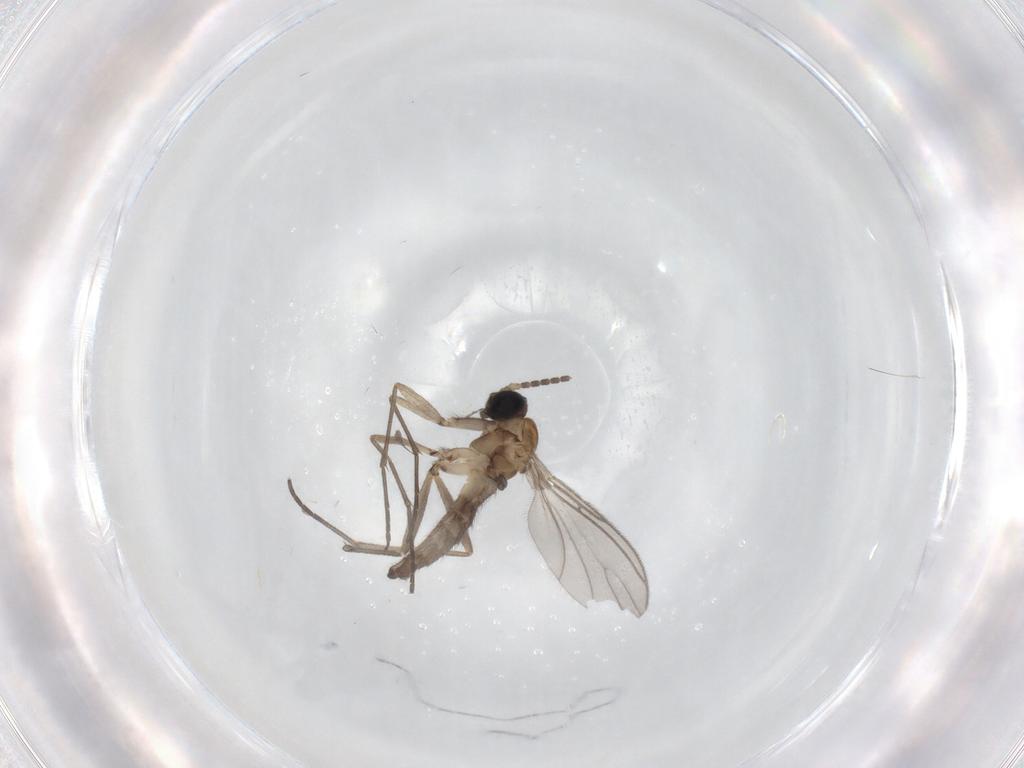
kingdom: Animalia
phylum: Arthropoda
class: Insecta
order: Diptera
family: Sciaridae
